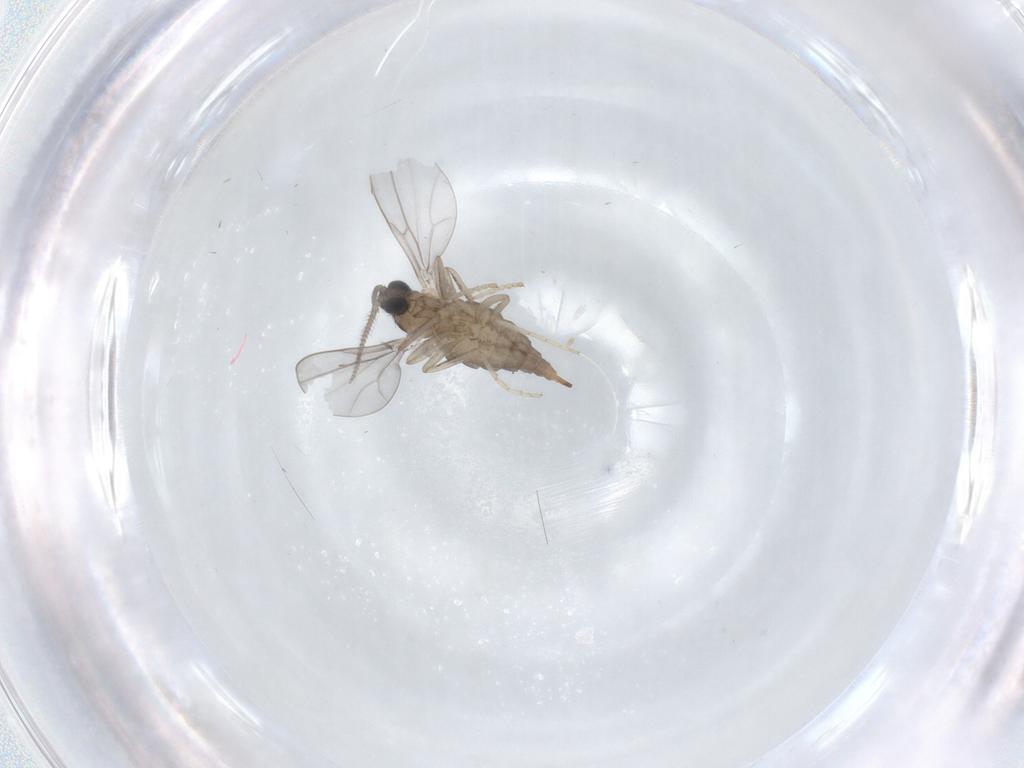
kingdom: Animalia
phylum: Arthropoda
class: Insecta
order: Diptera
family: Cecidomyiidae
